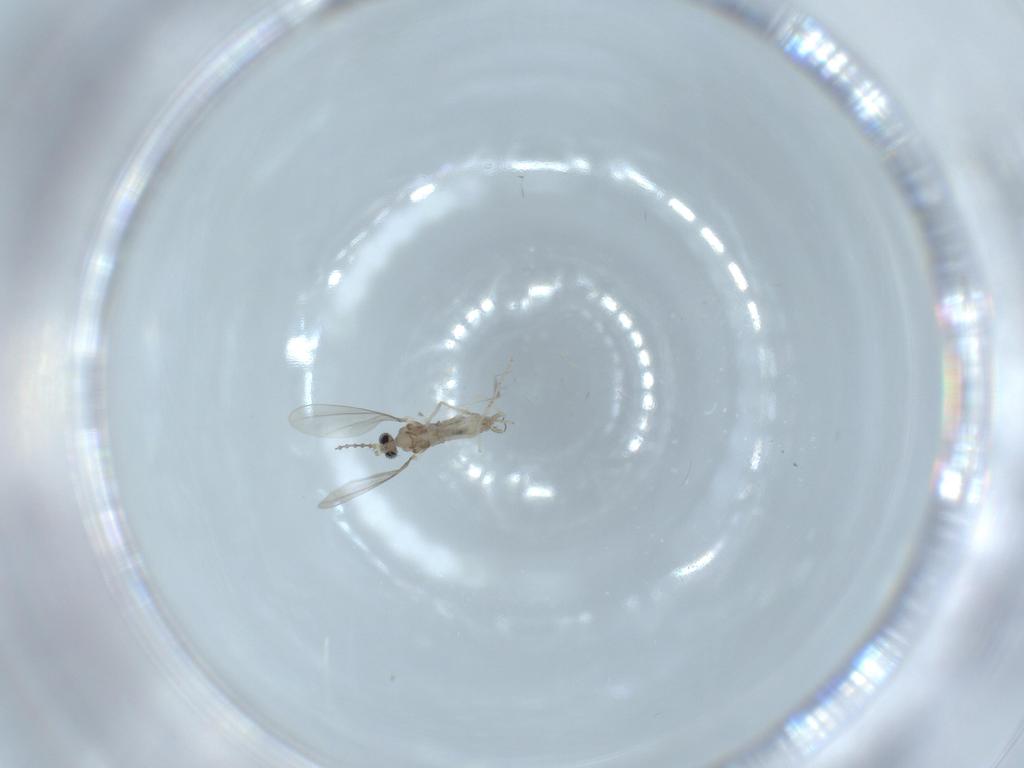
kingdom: Animalia
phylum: Arthropoda
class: Insecta
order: Diptera
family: Cecidomyiidae
